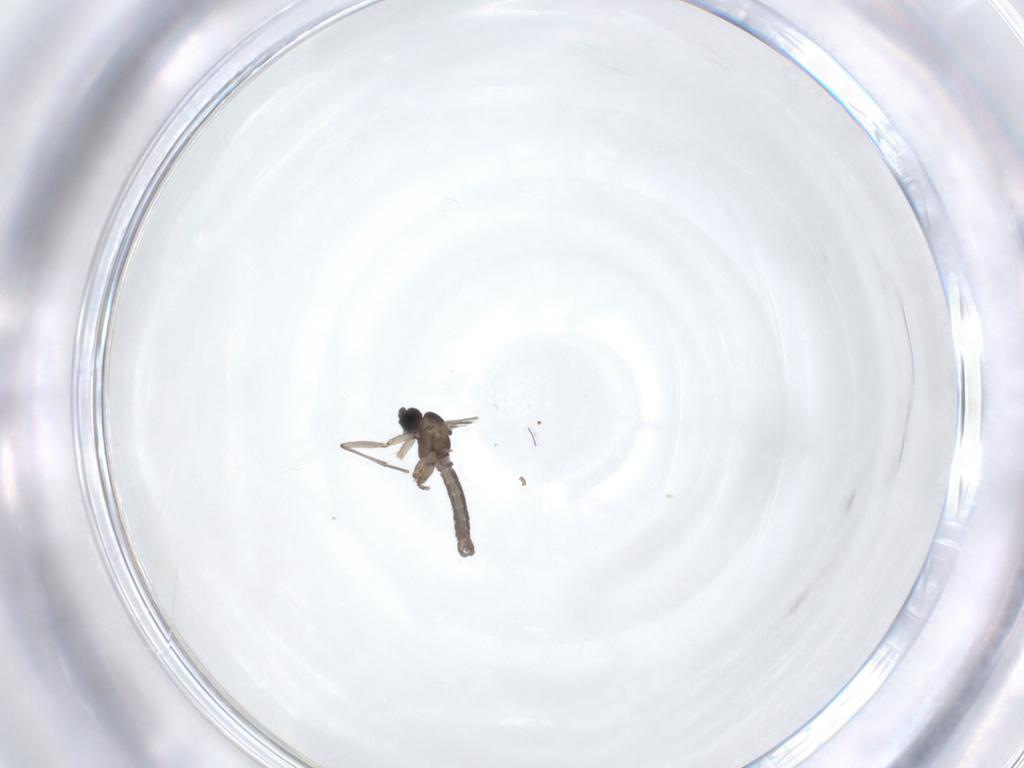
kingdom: Animalia
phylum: Arthropoda
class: Insecta
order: Diptera
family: Sciaridae
